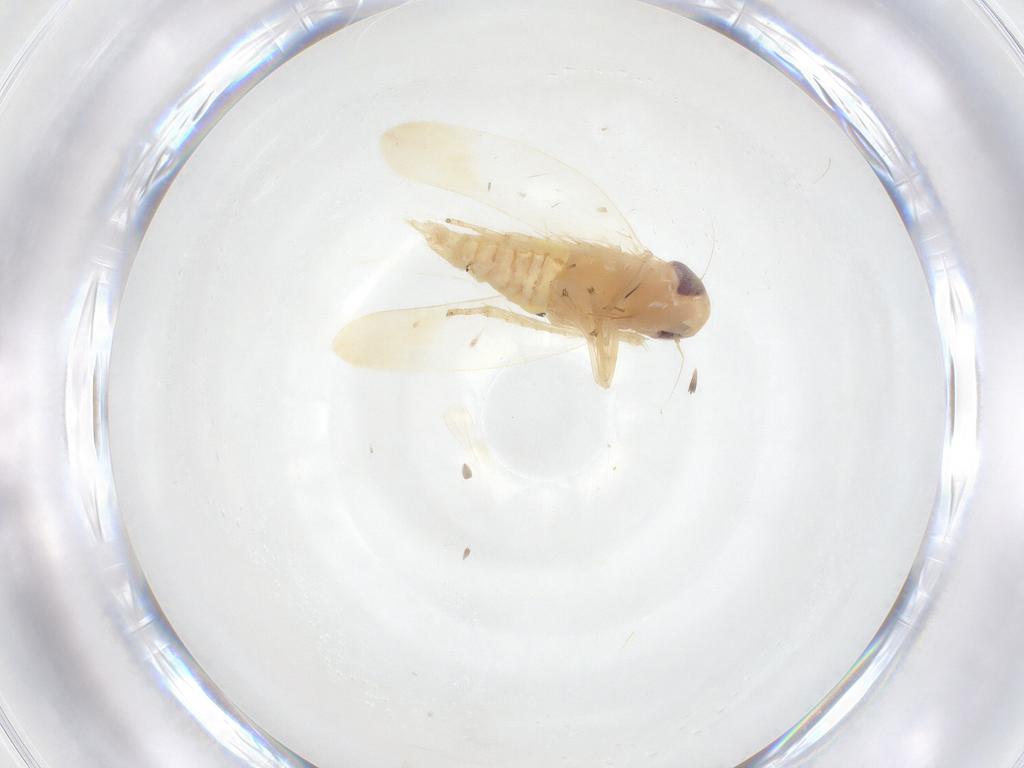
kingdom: Animalia
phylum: Arthropoda
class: Insecta
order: Hemiptera
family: Cicadellidae
